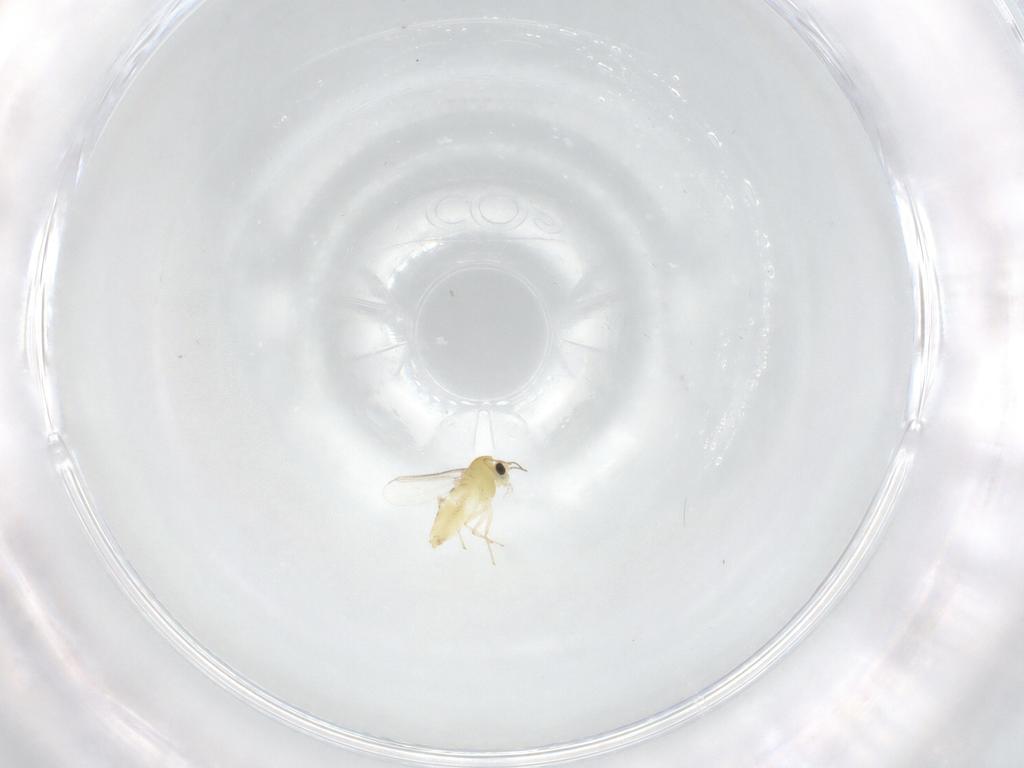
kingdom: Animalia
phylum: Arthropoda
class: Insecta
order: Diptera
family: Chironomidae
